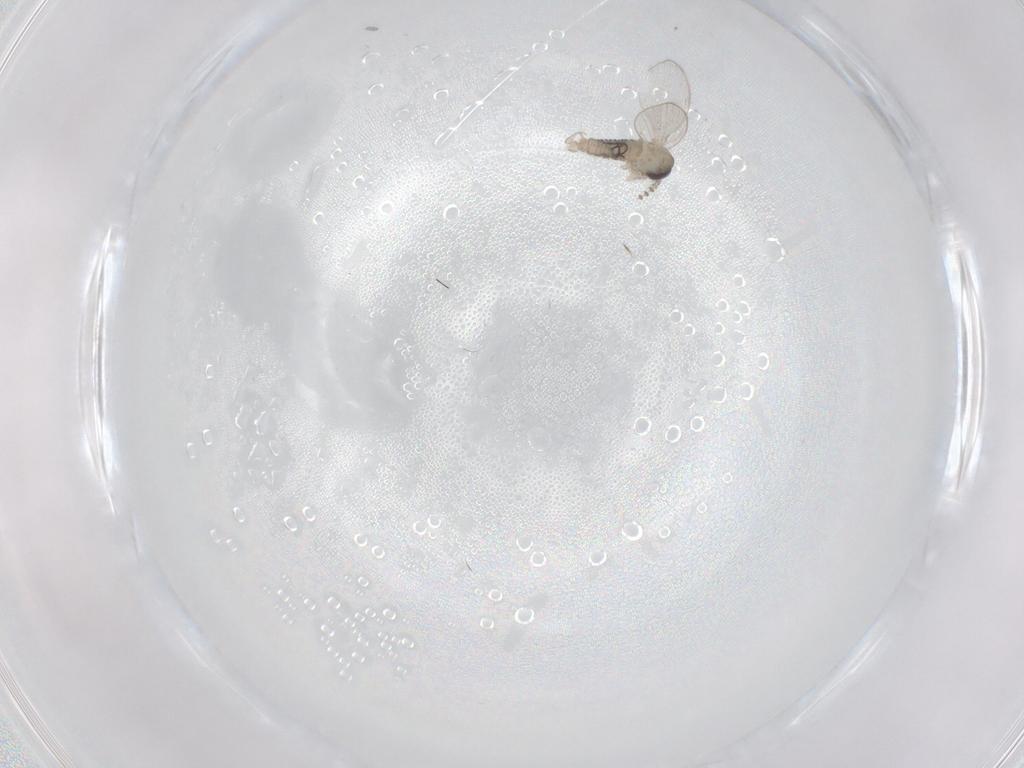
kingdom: Animalia
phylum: Arthropoda
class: Insecta
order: Diptera
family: Psychodidae
